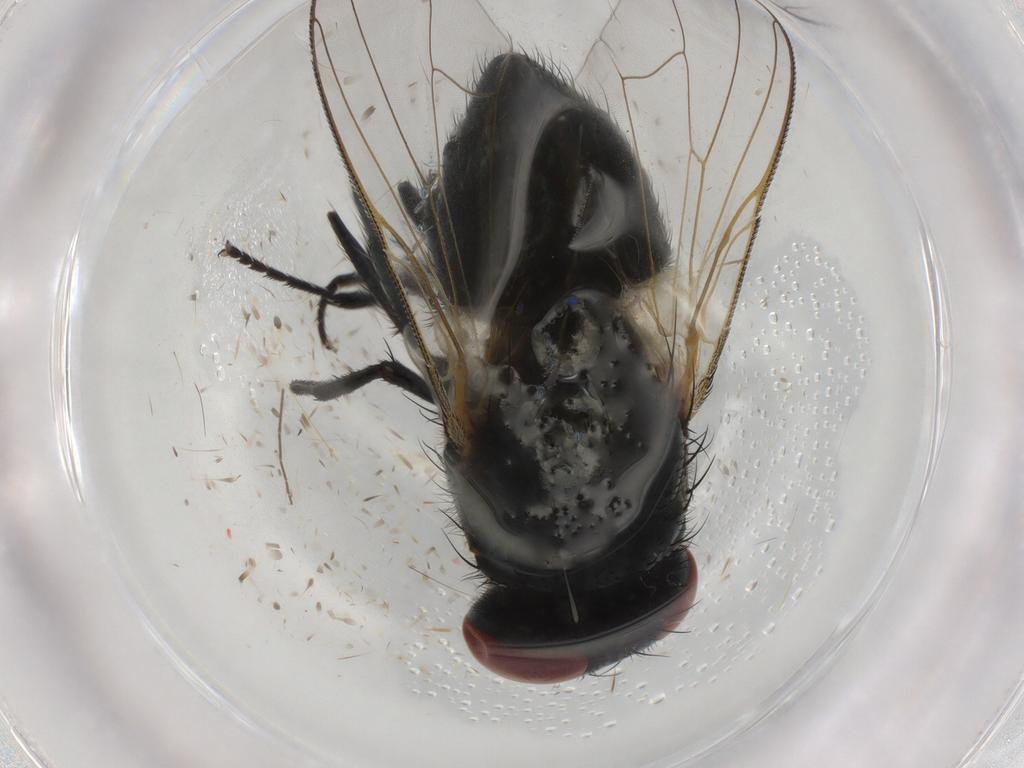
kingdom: Animalia
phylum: Arthropoda
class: Insecta
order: Diptera
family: Muscidae
